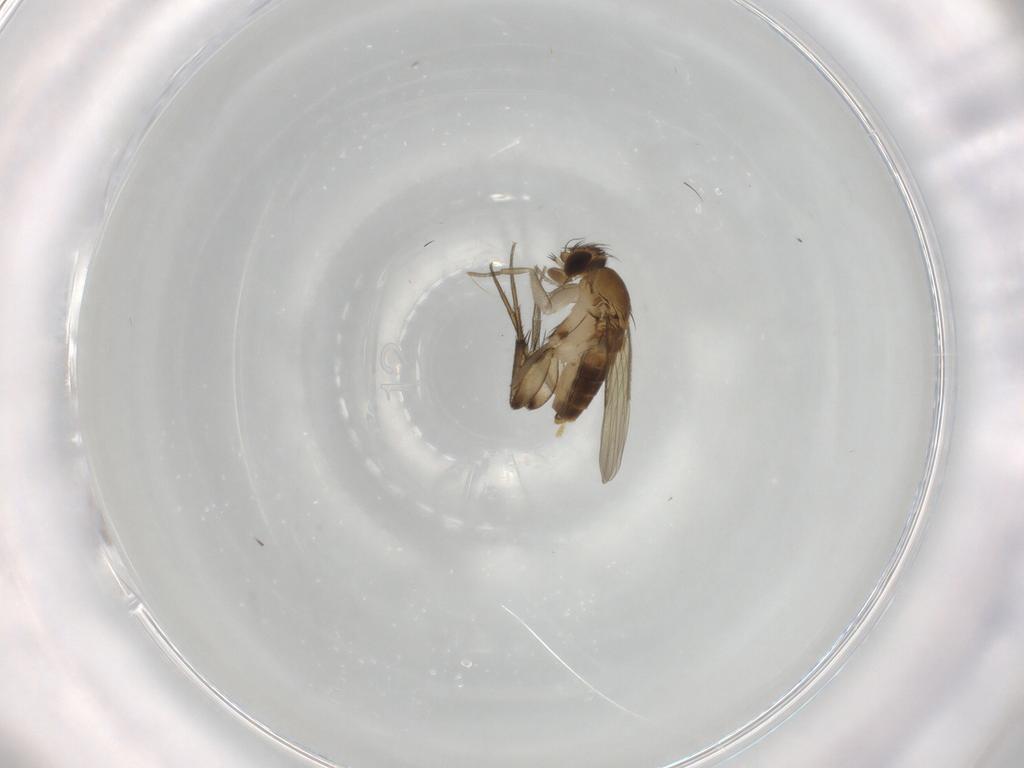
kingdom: Animalia
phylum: Arthropoda
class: Insecta
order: Diptera
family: Phoridae
